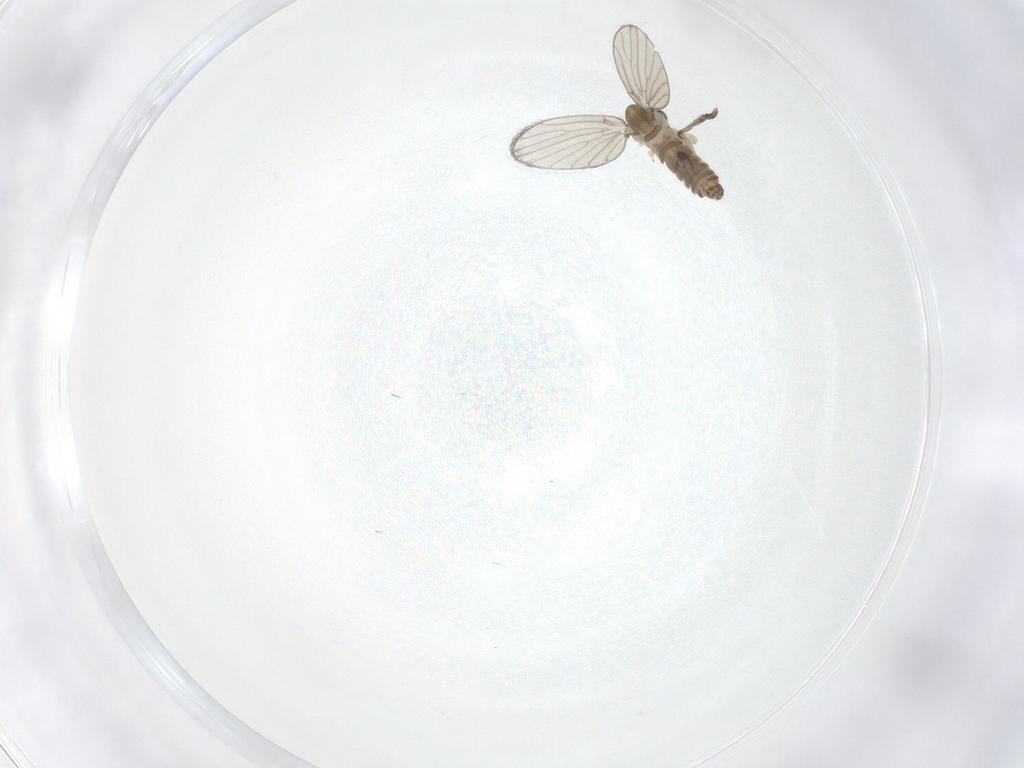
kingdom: Animalia
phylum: Arthropoda
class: Insecta
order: Diptera
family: Psychodidae
